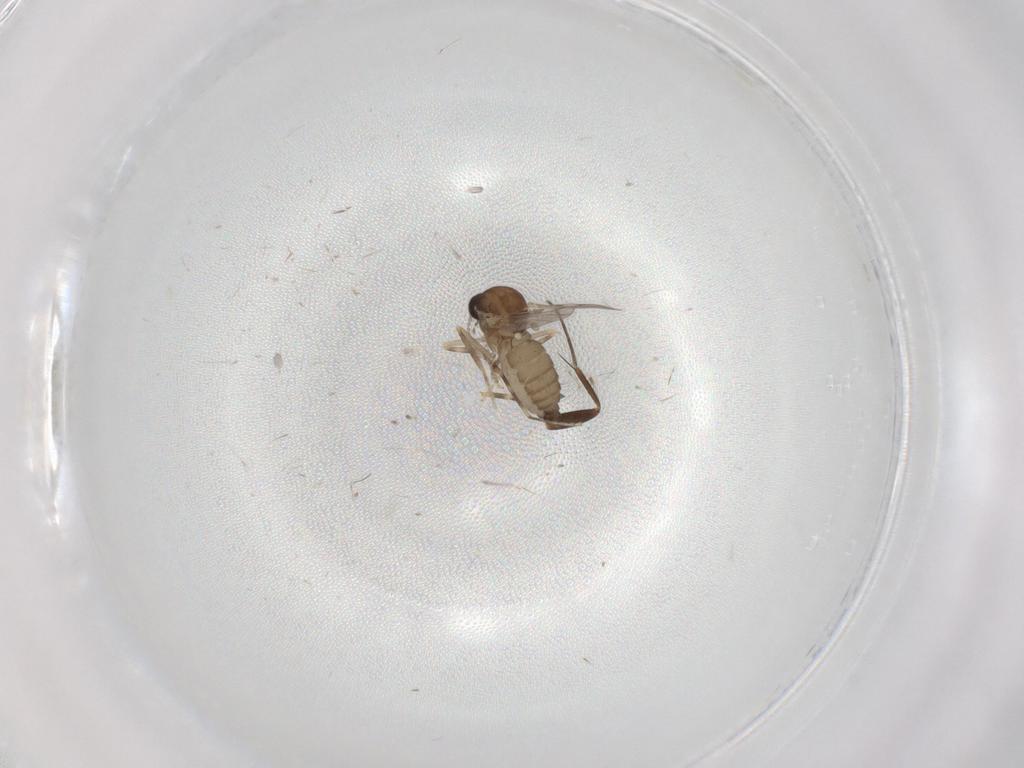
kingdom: Animalia
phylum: Arthropoda
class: Insecta
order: Diptera
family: Ceratopogonidae
